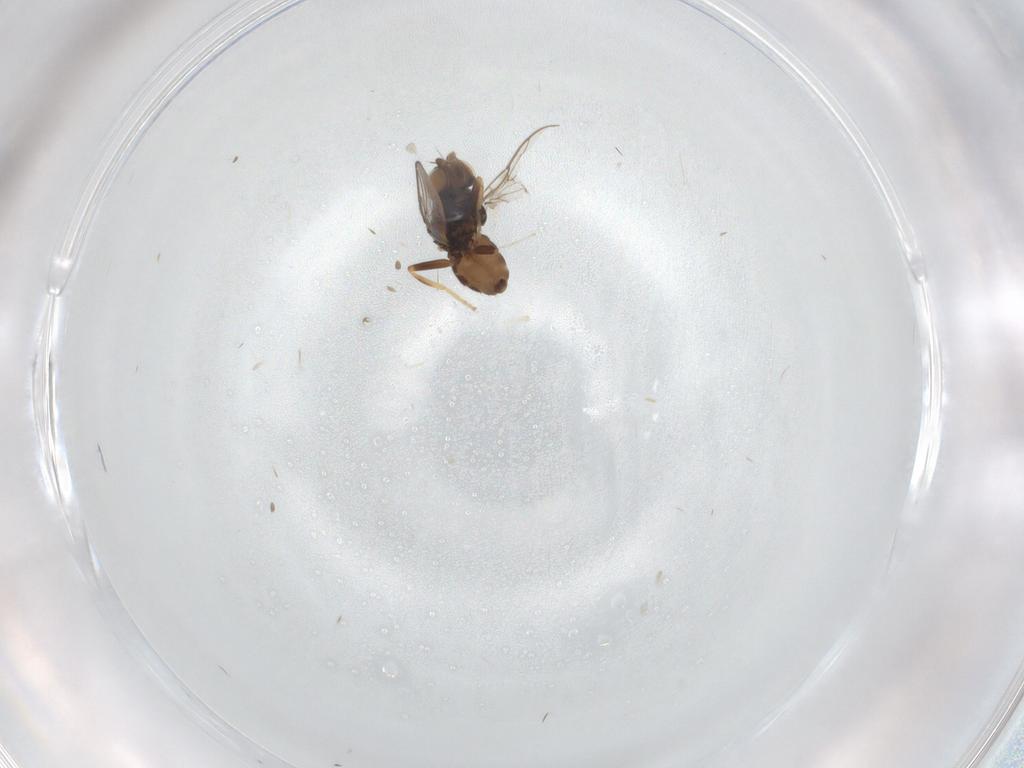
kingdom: Animalia
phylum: Arthropoda
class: Insecta
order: Diptera
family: Chloropidae
